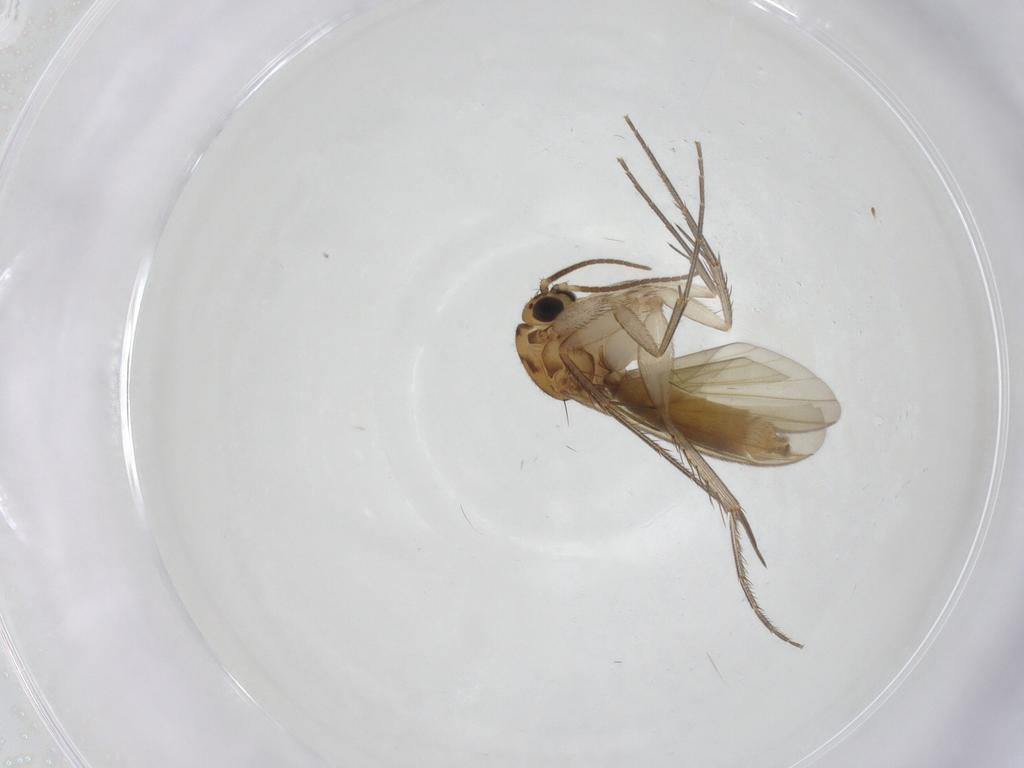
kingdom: Animalia
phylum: Arthropoda
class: Insecta
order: Diptera
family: Mycetophilidae
